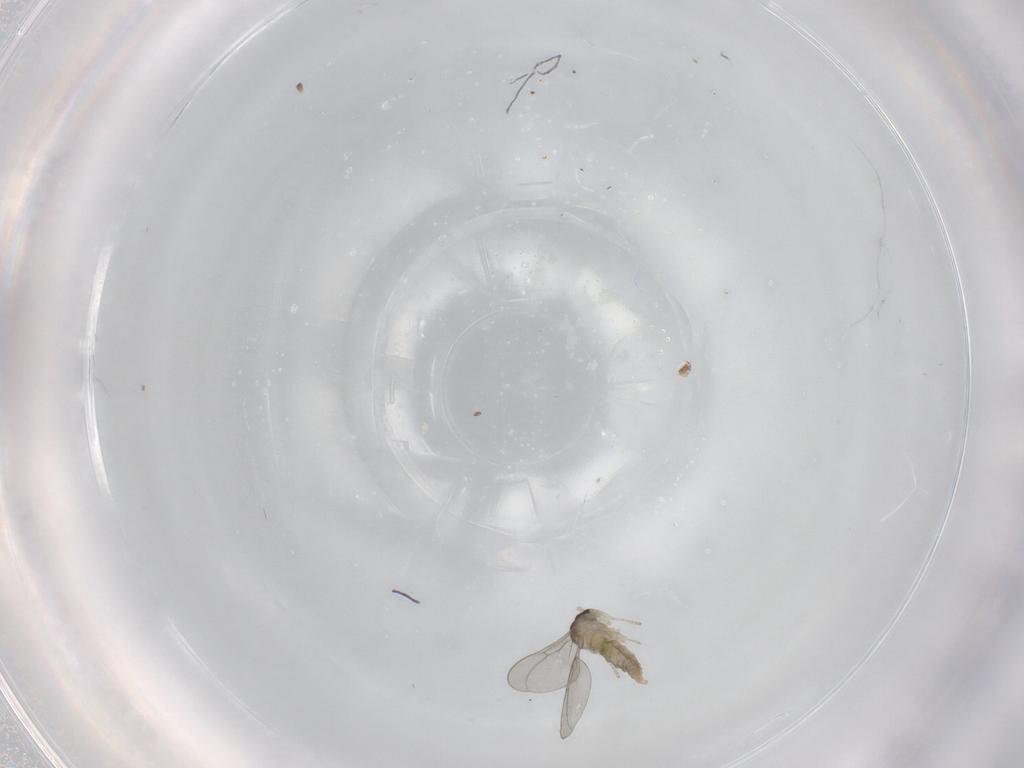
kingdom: Animalia
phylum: Arthropoda
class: Insecta
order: Diptera
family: Cecidomyiidae
